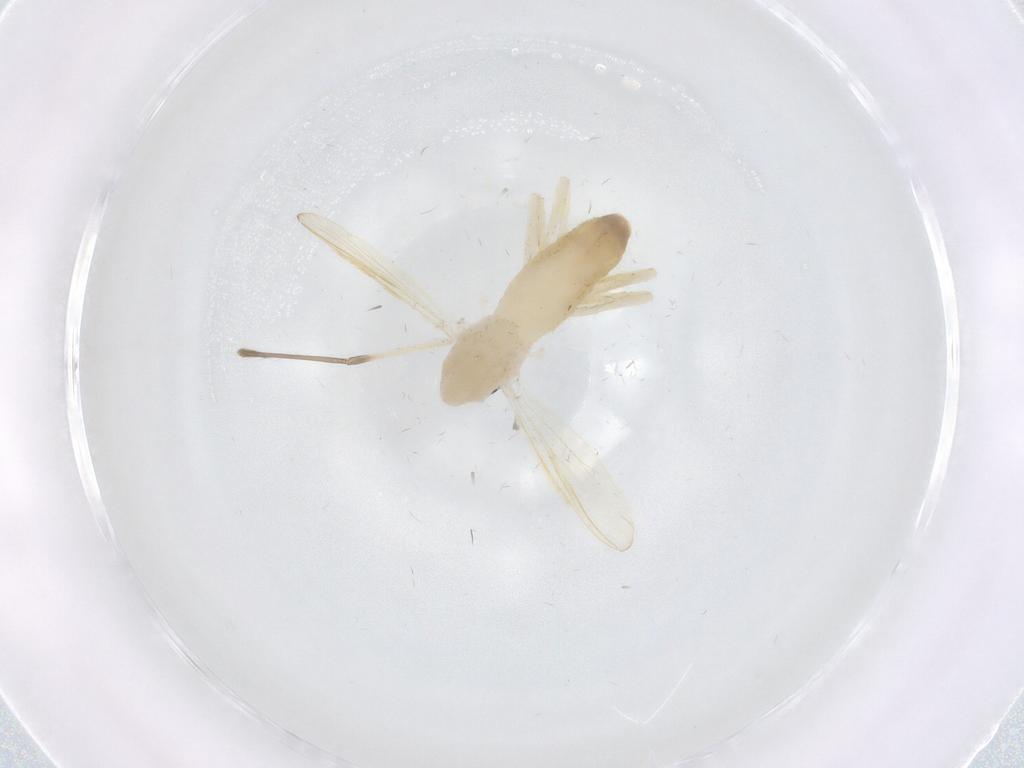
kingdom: Animalia
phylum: Arthropoda
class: Insecta
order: Diptera
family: Chironomidae
